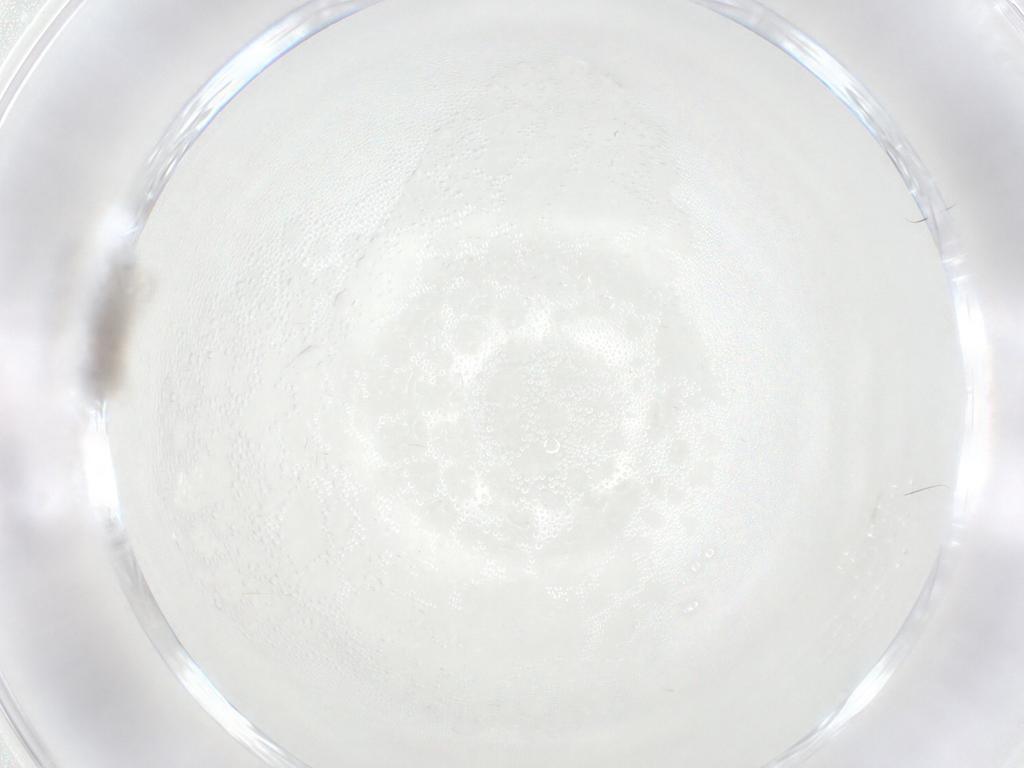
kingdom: Animalia
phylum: Arthropoda
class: Insecta
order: Diptera
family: Sciaridae
